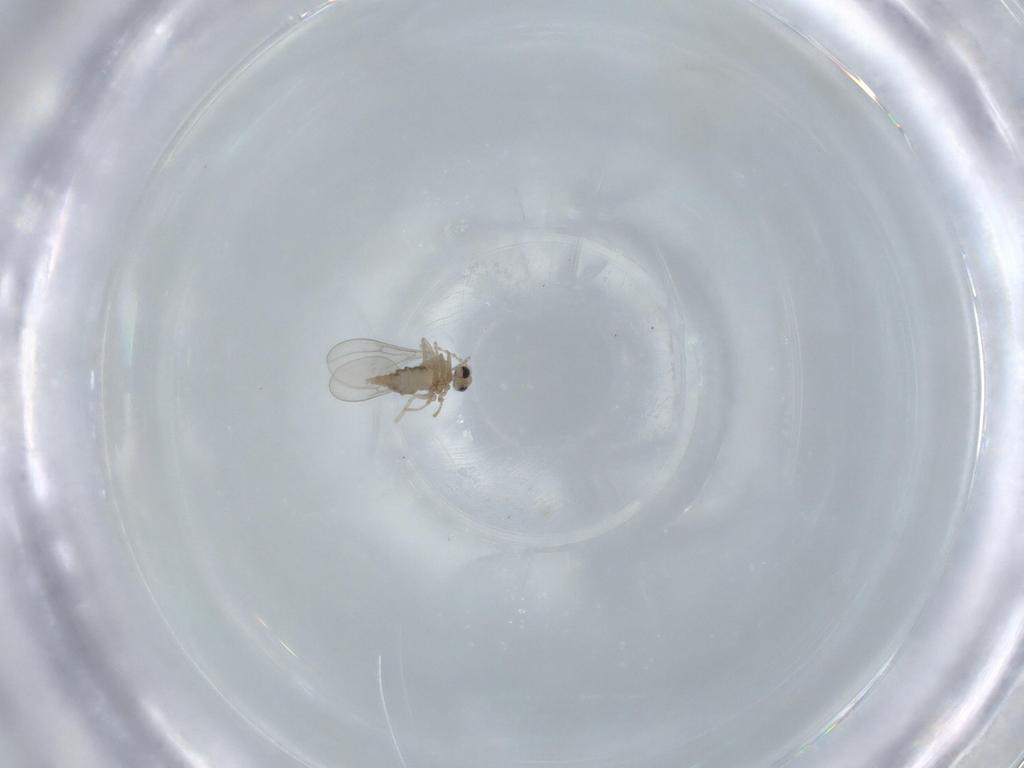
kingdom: Animalia
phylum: Arthropoda
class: Insecta
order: Diptera
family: Cecidomyiidae
